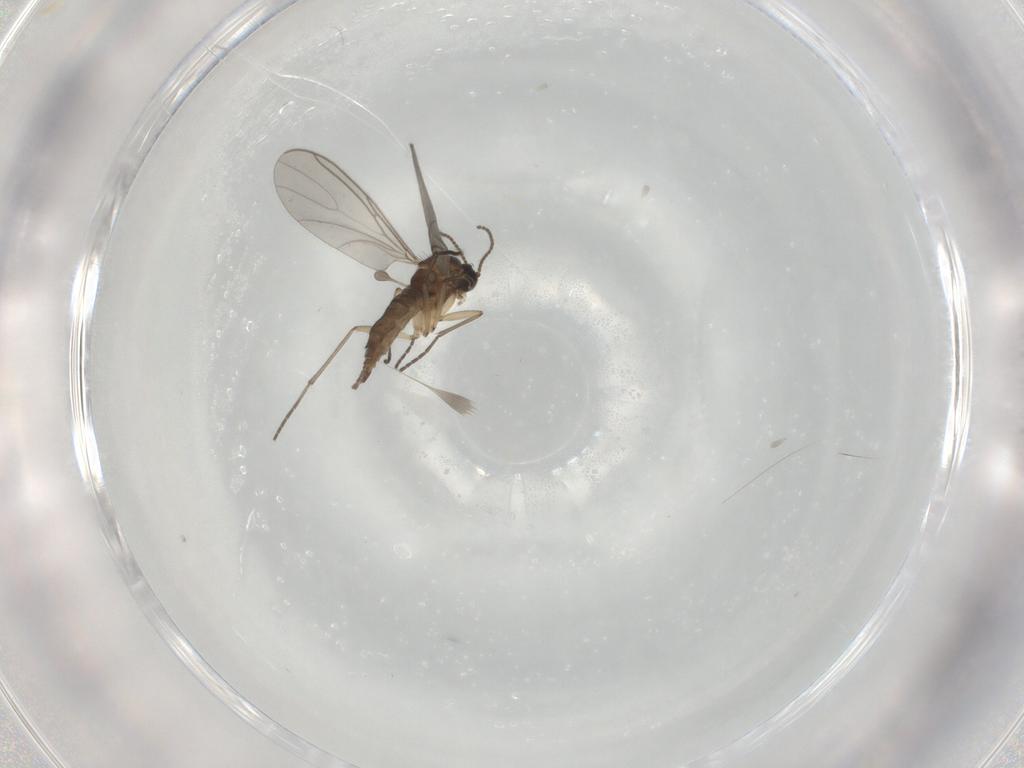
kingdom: Animalia
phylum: Arthropoda
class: Insecta
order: Diptera
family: Sciaridae
